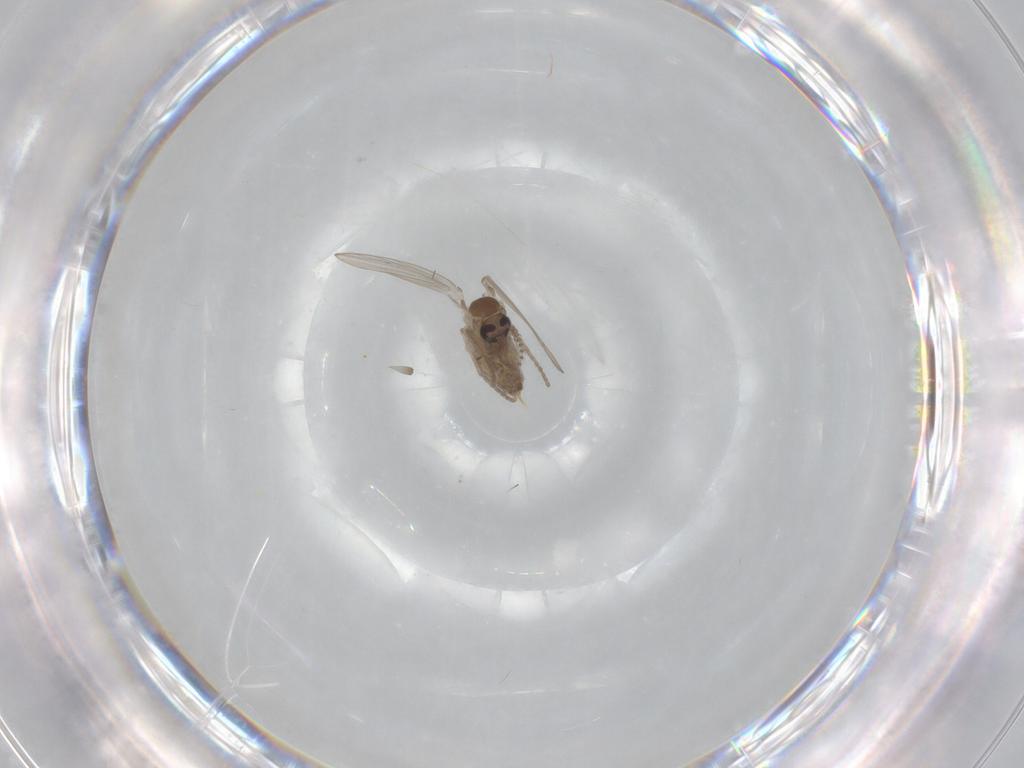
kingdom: Animalia
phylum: Arthropoda
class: Insecta
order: Diptera
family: Psychodidae
